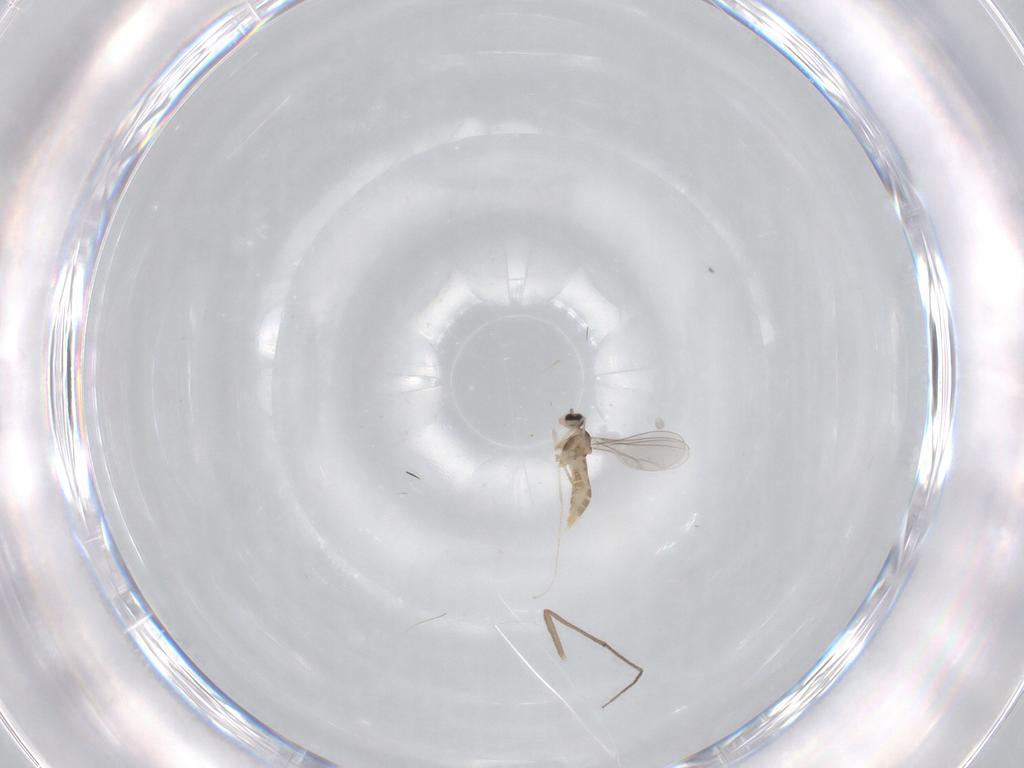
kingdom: Animalia
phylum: Arthropoda
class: Insecta
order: Diptera
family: Cecidomyiidae
